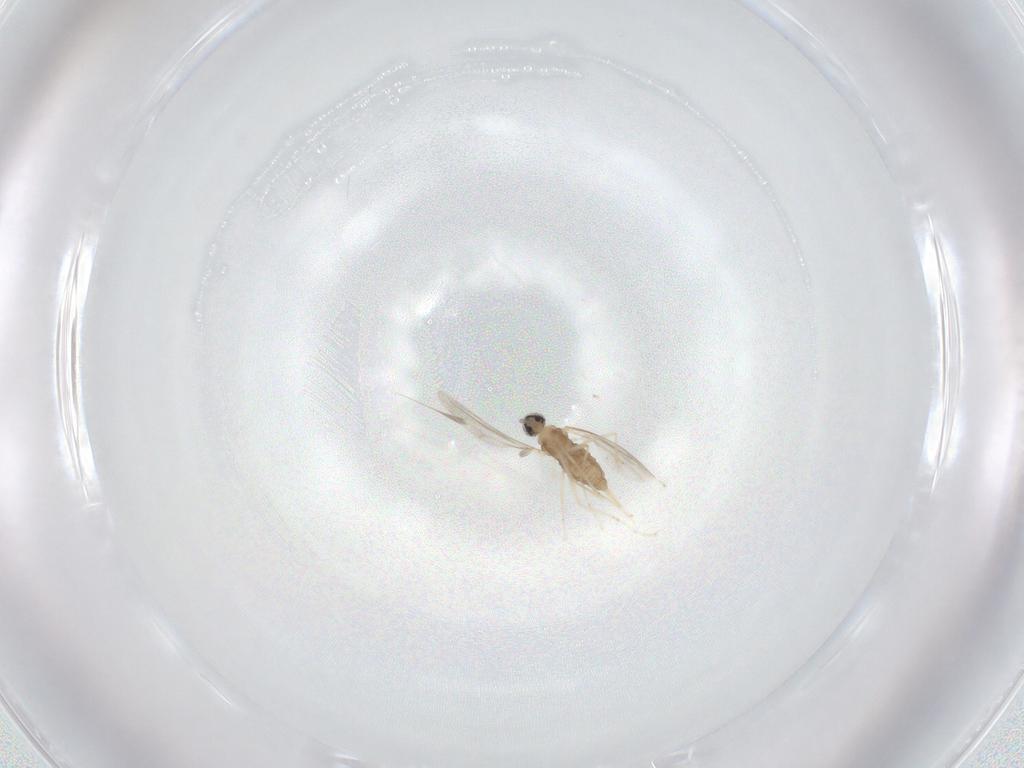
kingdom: Animalia
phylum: Arthropoda
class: Insecta
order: Diptera
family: Cecidomyiidae
